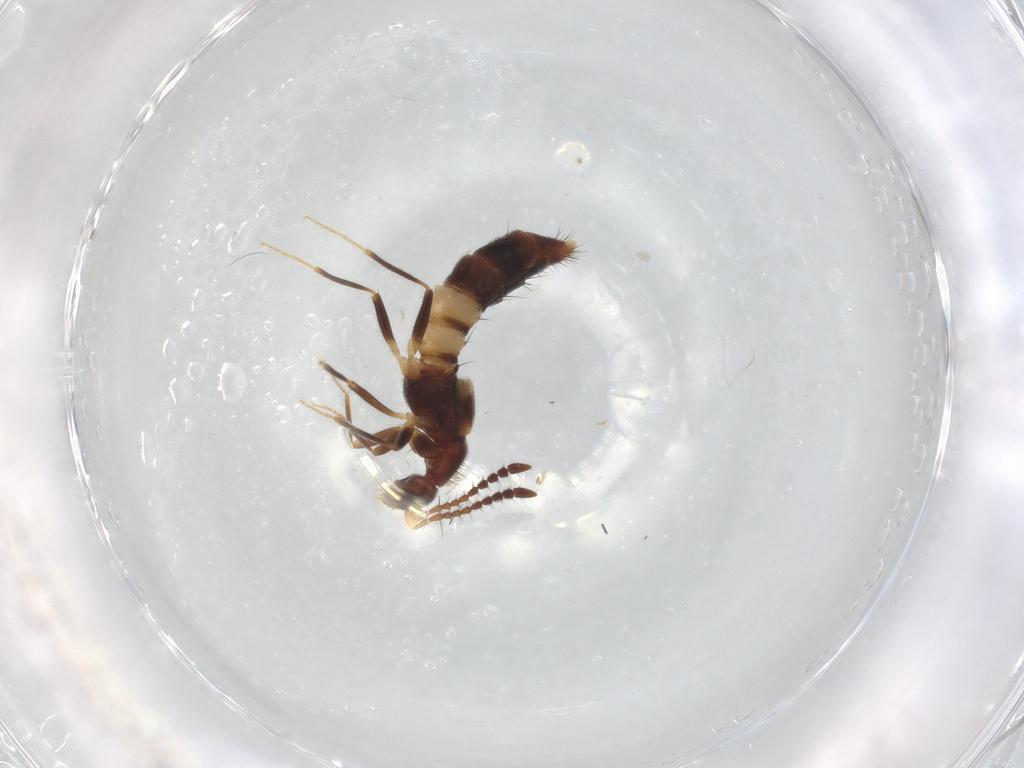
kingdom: Animalia
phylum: Arthropoda
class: Insecta
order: Coleoptera
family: Staphylinidae
